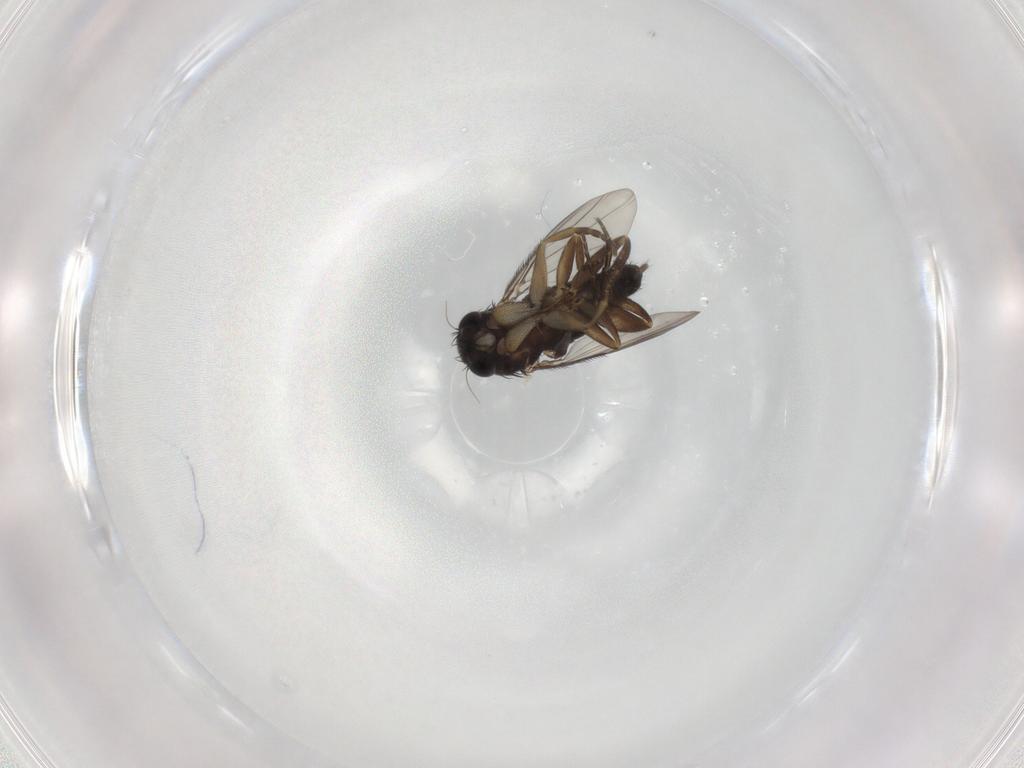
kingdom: Animalia
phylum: Arthropoda
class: Insecta
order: Diptera
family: Phoridae
